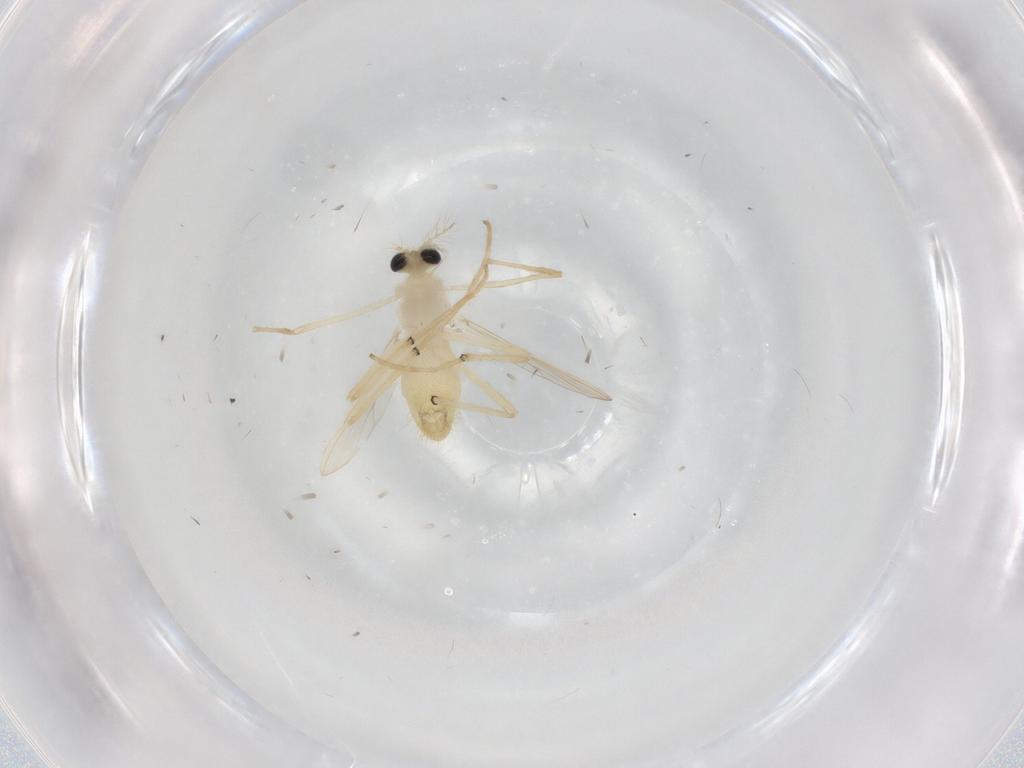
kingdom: Animalia
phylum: Arthropoda
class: Insecta
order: Diptera
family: Chironomidae
